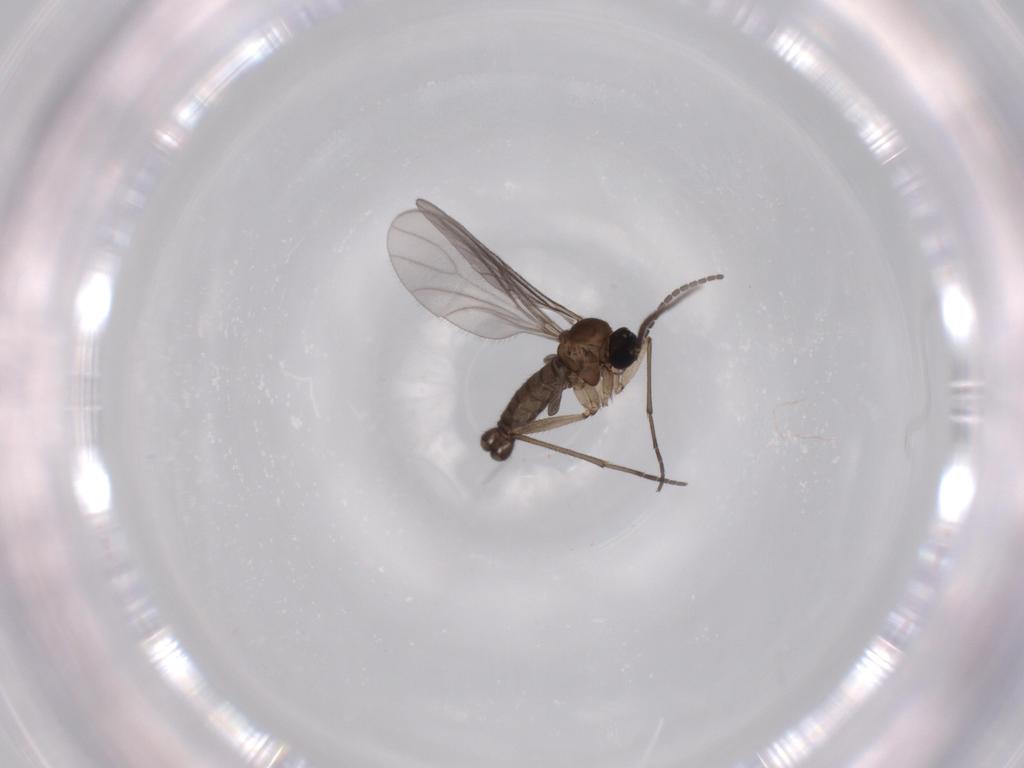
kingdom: Animalia
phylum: Arthropoda
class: Insecta
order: Diptera
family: Sciaridae
